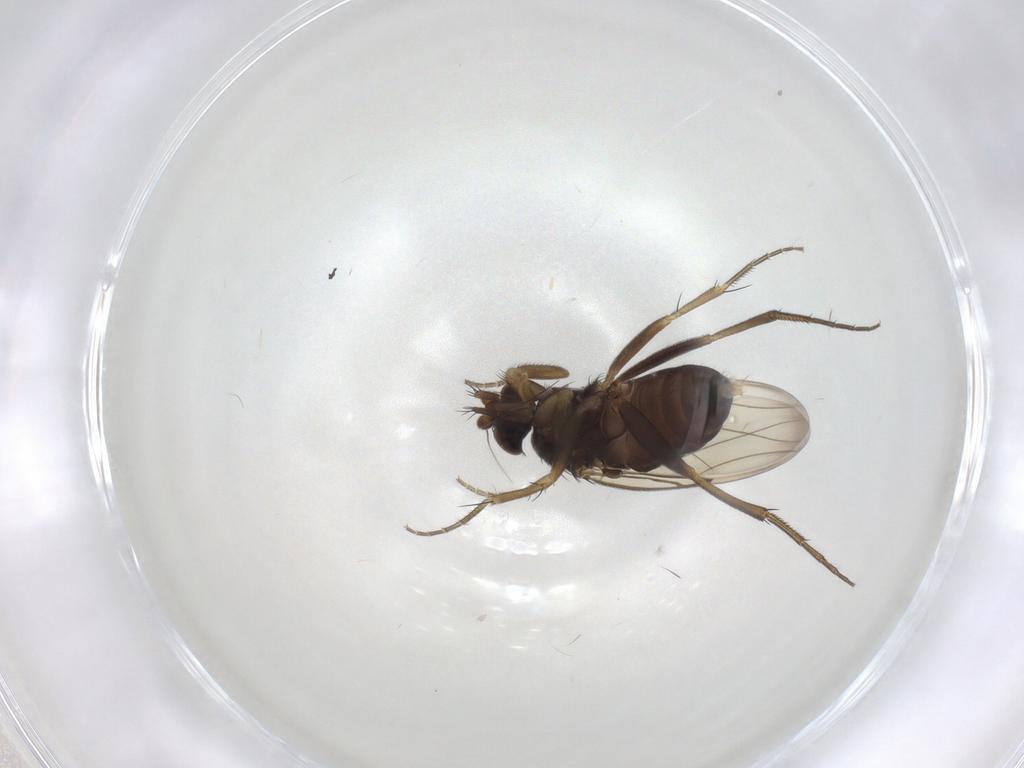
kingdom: Animalia
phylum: Arthropoda
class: Insecta
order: Diptera
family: Phoridae
